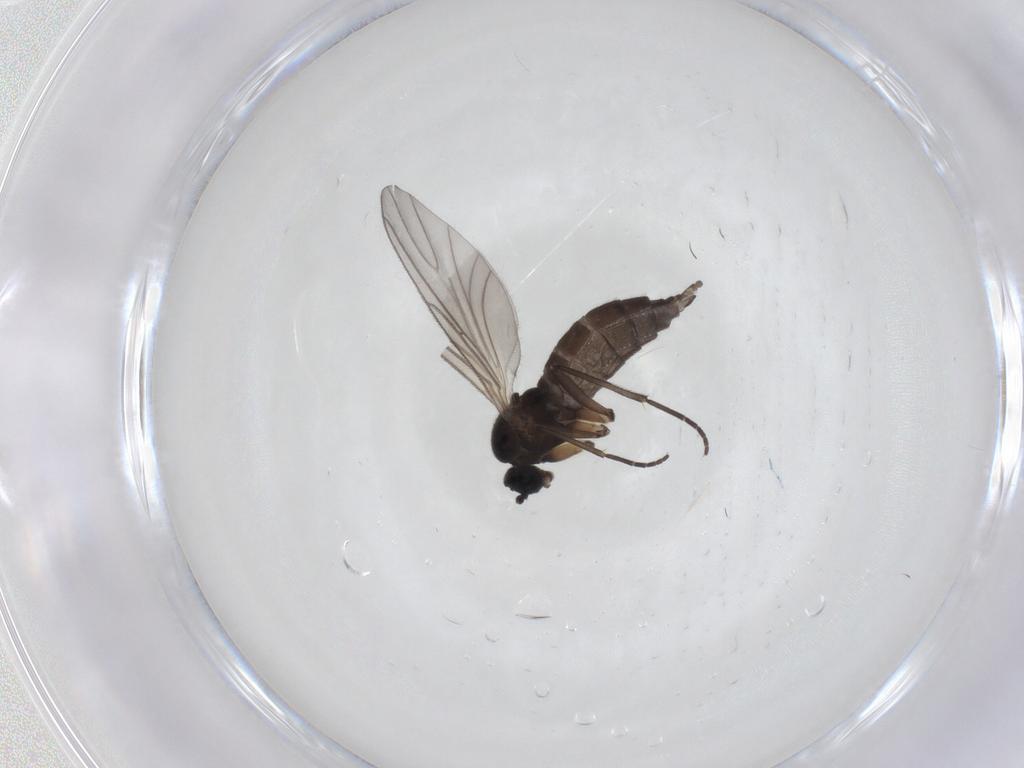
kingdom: Animalia
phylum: Arthropoda
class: Insecta
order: Diptera
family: Sciaridae
